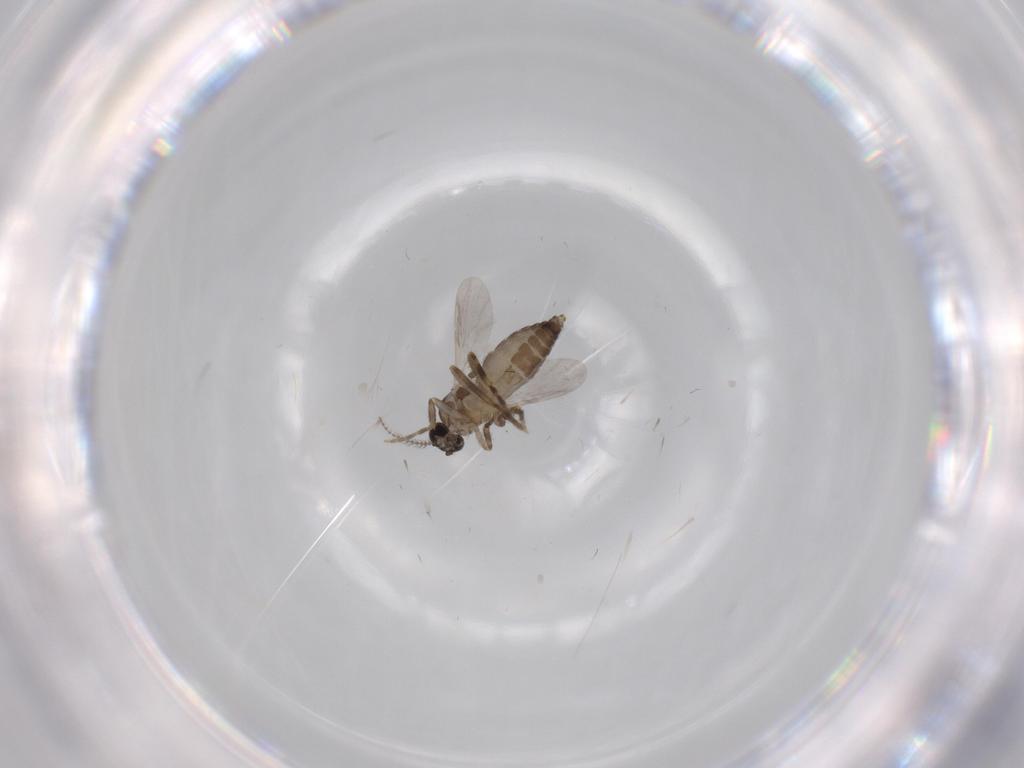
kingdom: Animalia
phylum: Arthropoda
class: Insecta
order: Diptera
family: Ceratopogonidae
